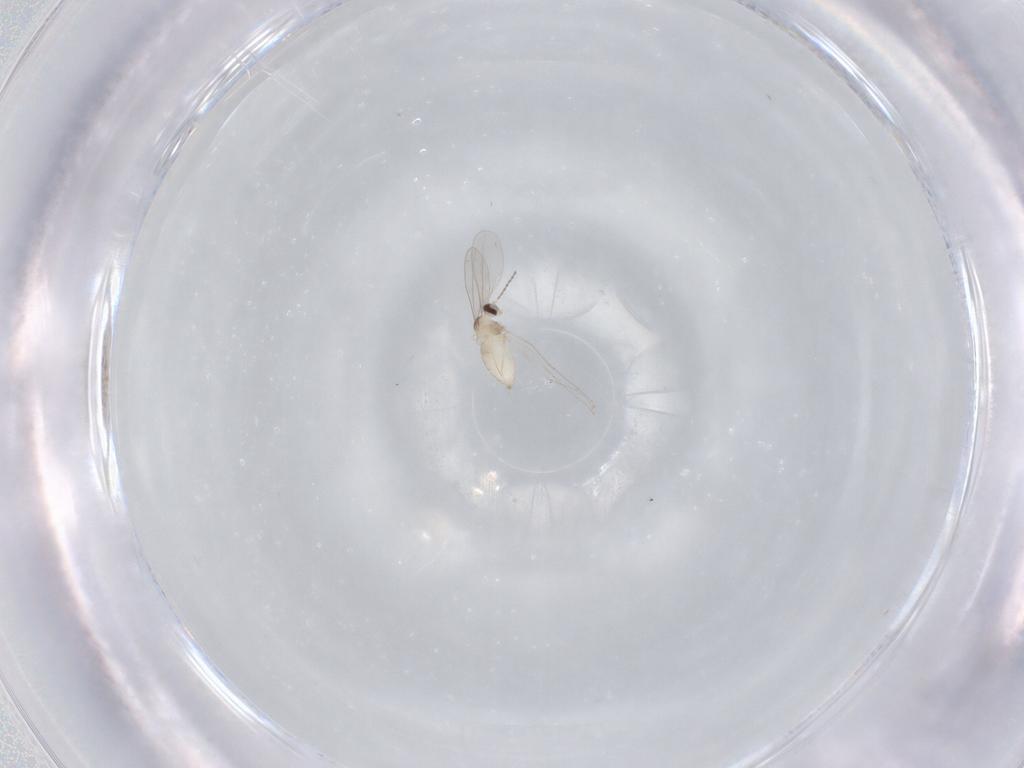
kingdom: Animalia
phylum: Arthropoda
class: Insecta
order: Diptera
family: Cecidomyiidae
